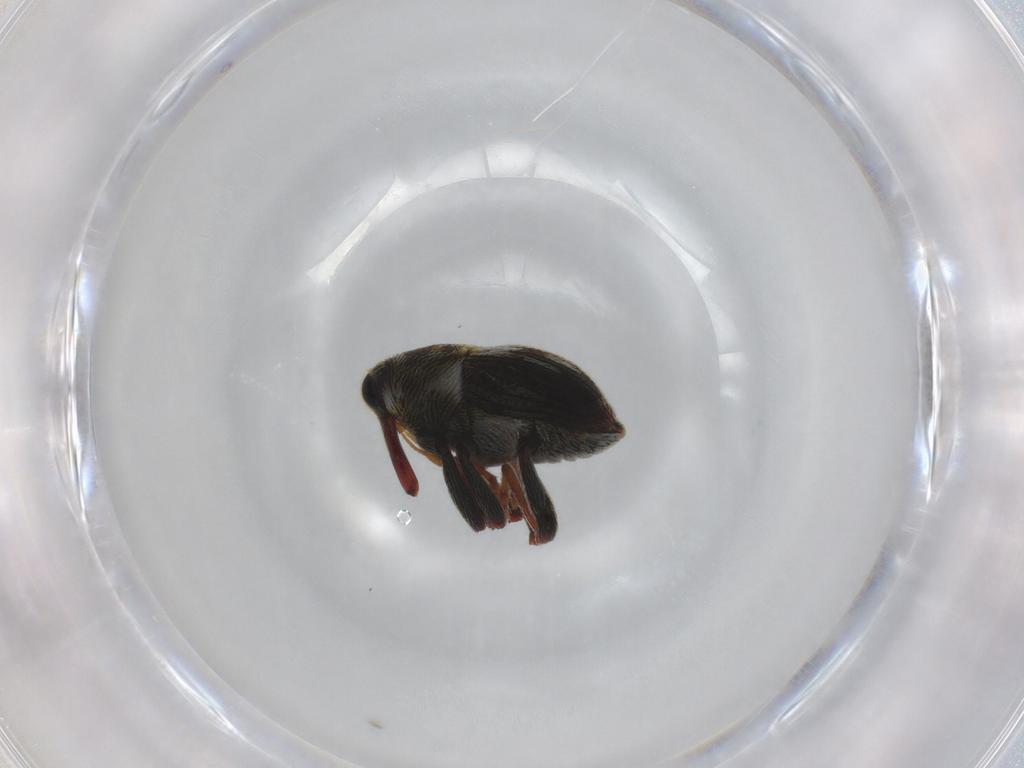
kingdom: Animalia
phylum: Arthropoda
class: Insecta
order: Coleoptera
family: Curculionidae
